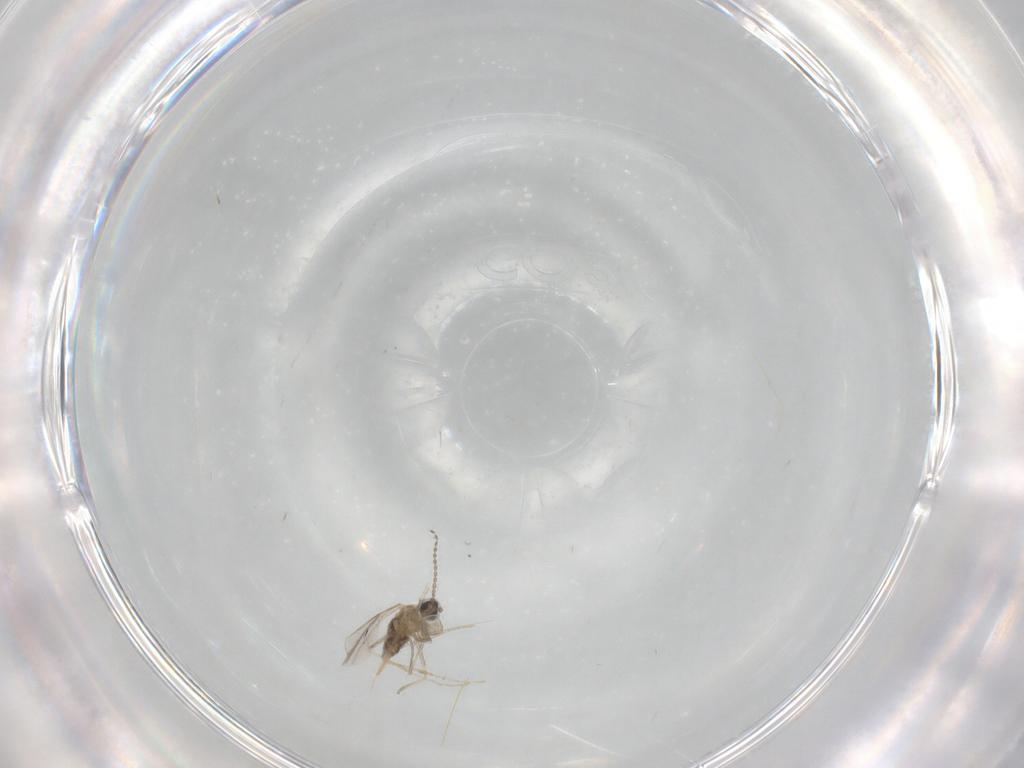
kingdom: Animalia
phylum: Arthropoda
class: Insecta
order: Diptera
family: Cecidomyiidae
